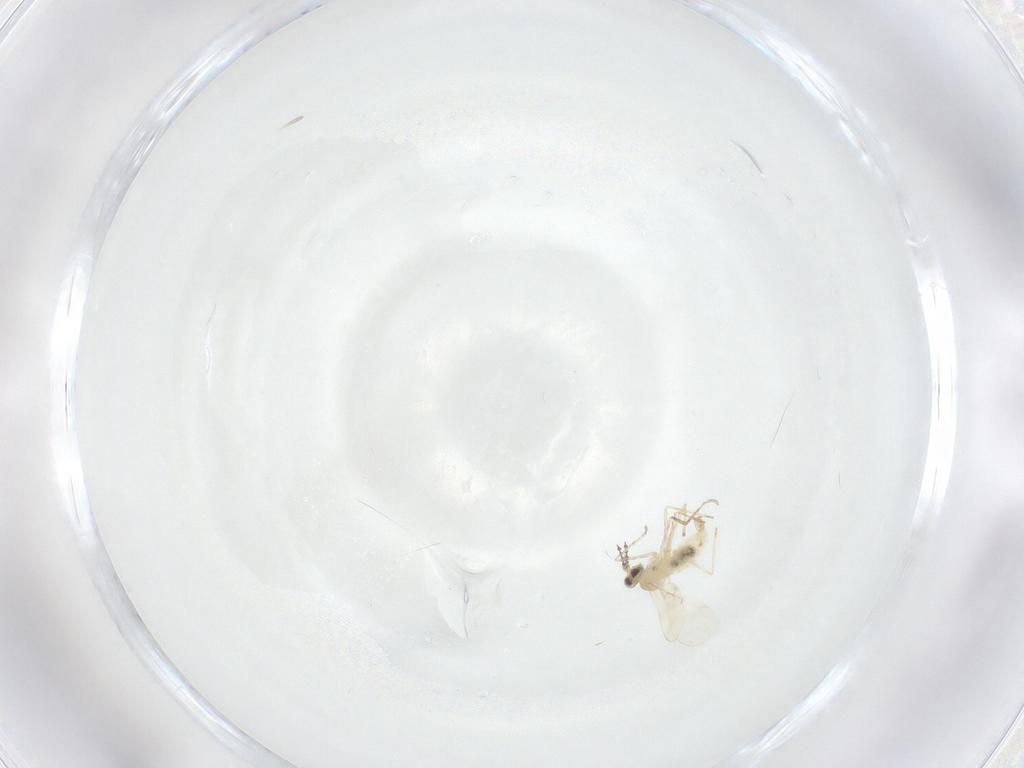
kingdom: Animalia
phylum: Arthropoda
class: Insecta
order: Diptera
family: Cecidomyiidae
